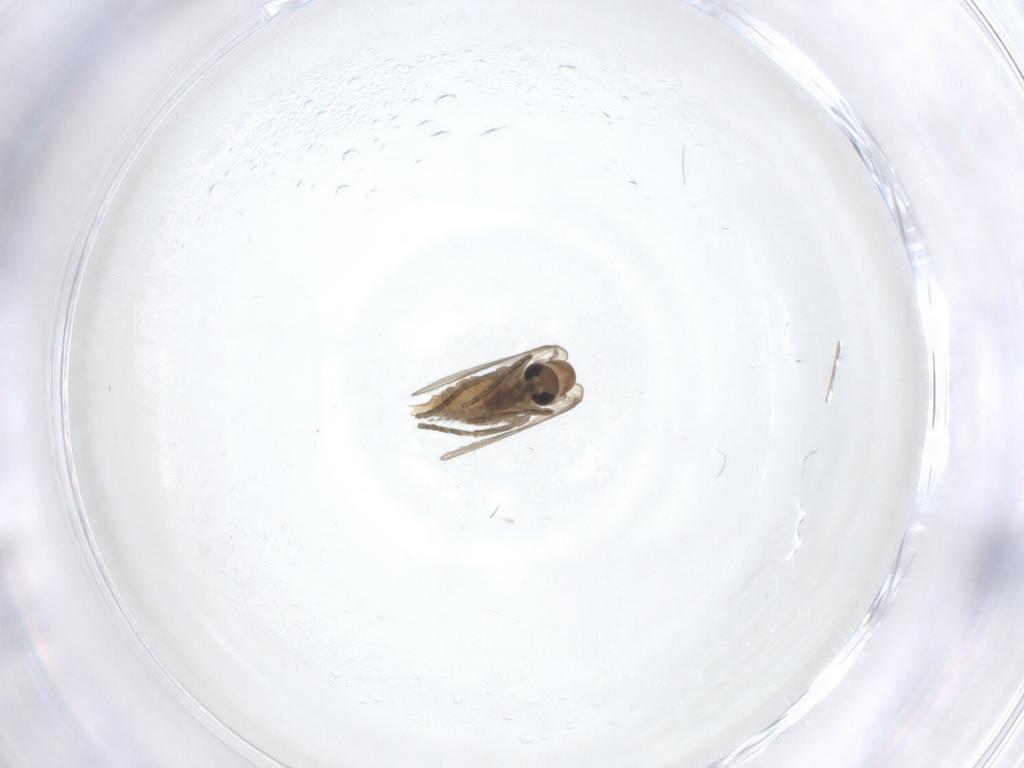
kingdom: Animalia
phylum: Arthropoda
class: Insecta
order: Diptera
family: Psychodidae
